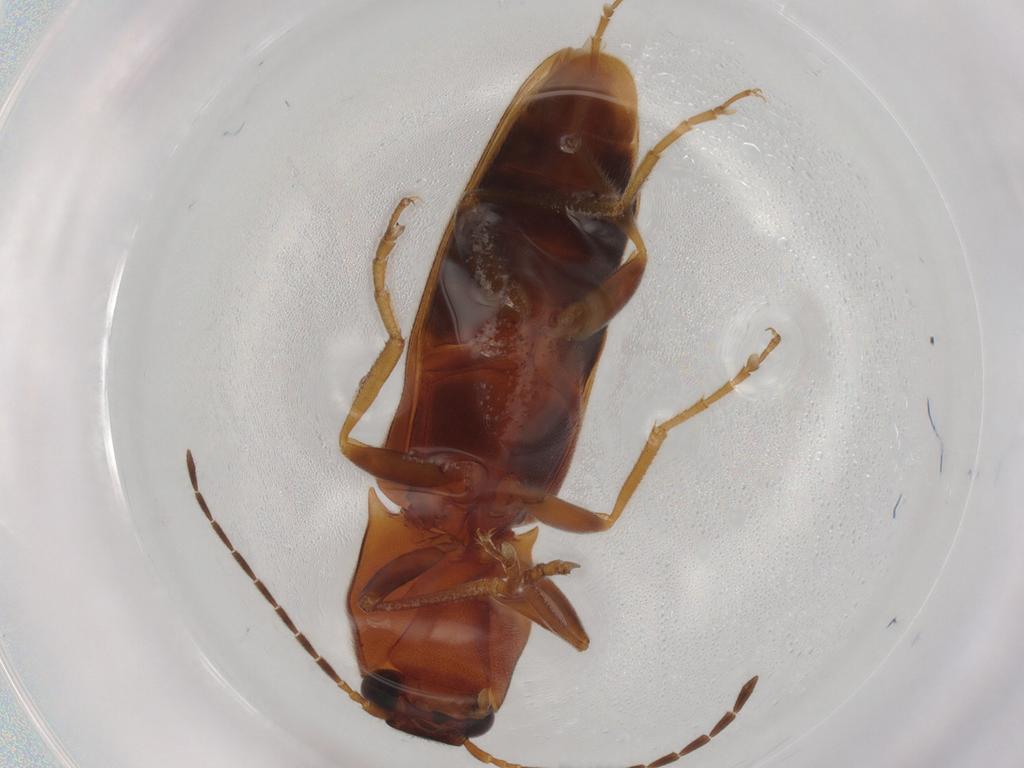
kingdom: Animalia
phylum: Arthropoda
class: Insecta
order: Coleoptera
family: Elateridae
